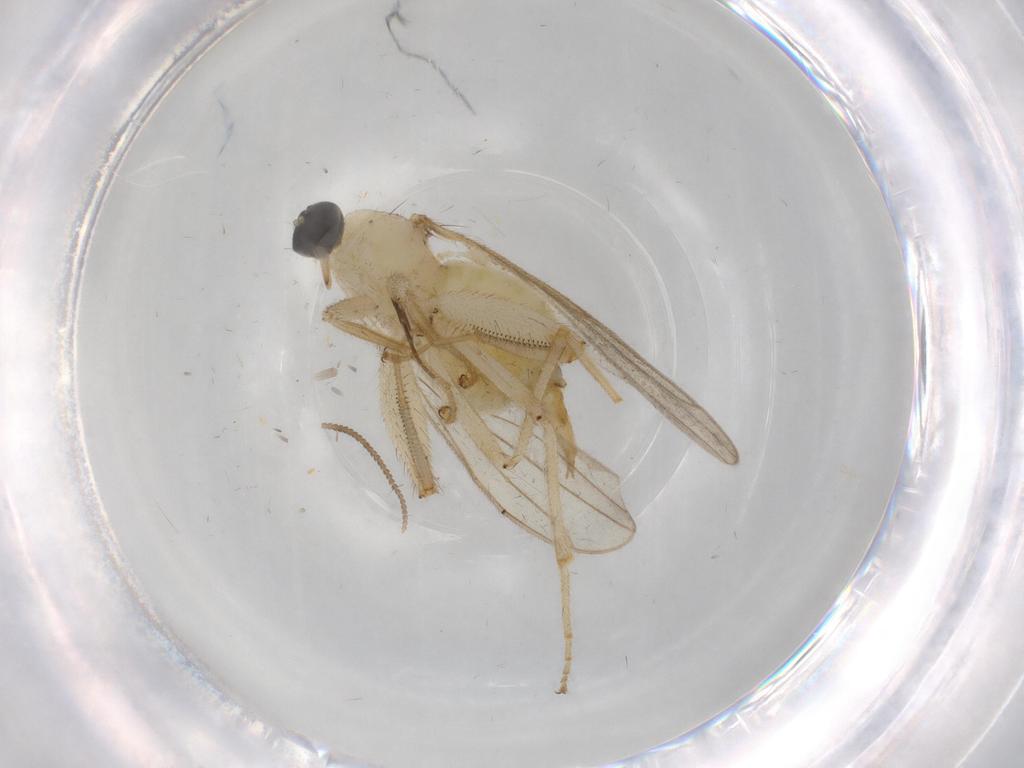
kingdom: Animalia
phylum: Arthropoda
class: Insecta
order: Diptera
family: Hybotidae
